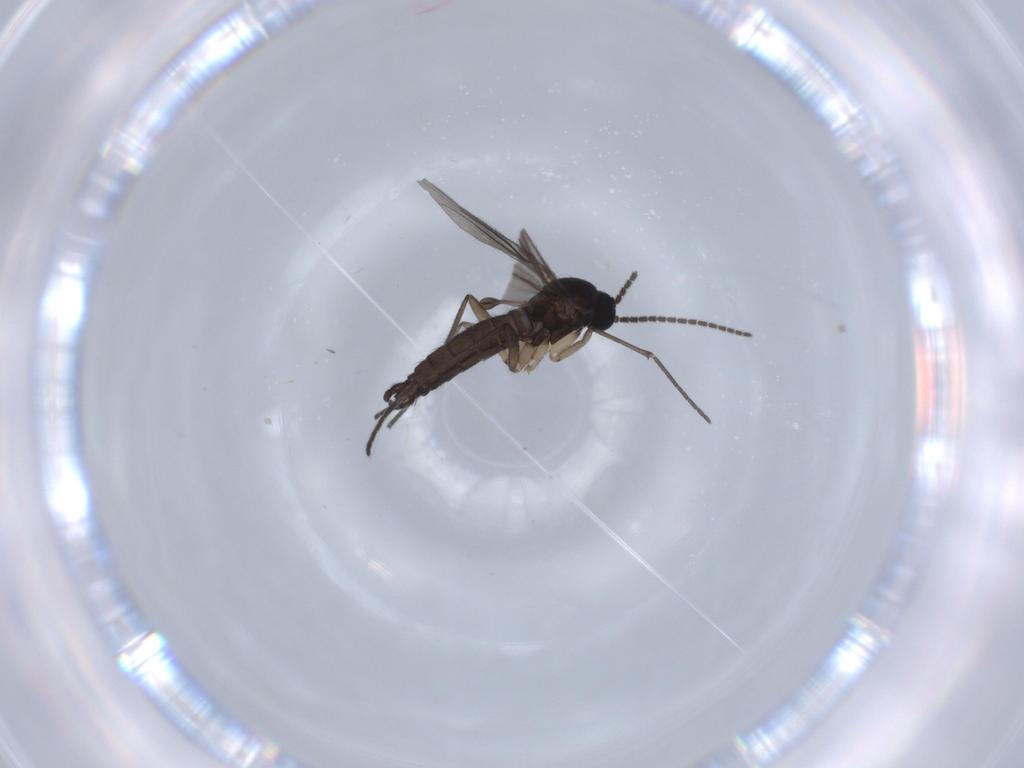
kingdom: Animalia
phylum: Arthropoda
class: Insecta
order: Diptera
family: Sciaridae
